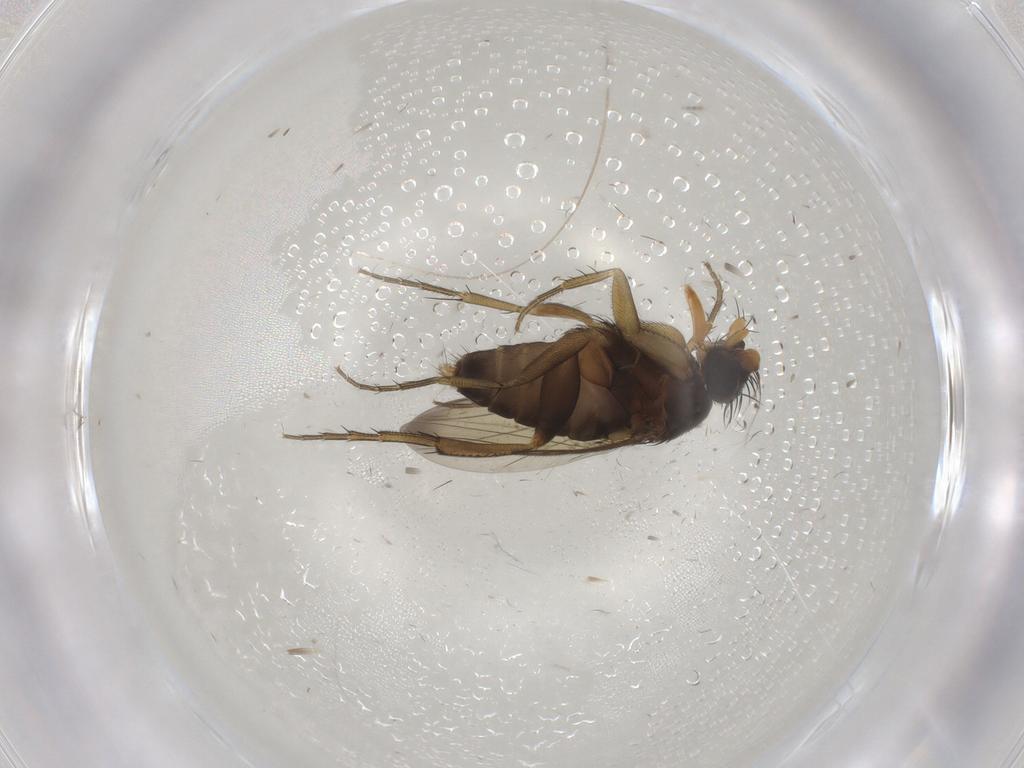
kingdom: Animalia
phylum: Arthropoda
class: Insecta
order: Diptera
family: Phoridae
